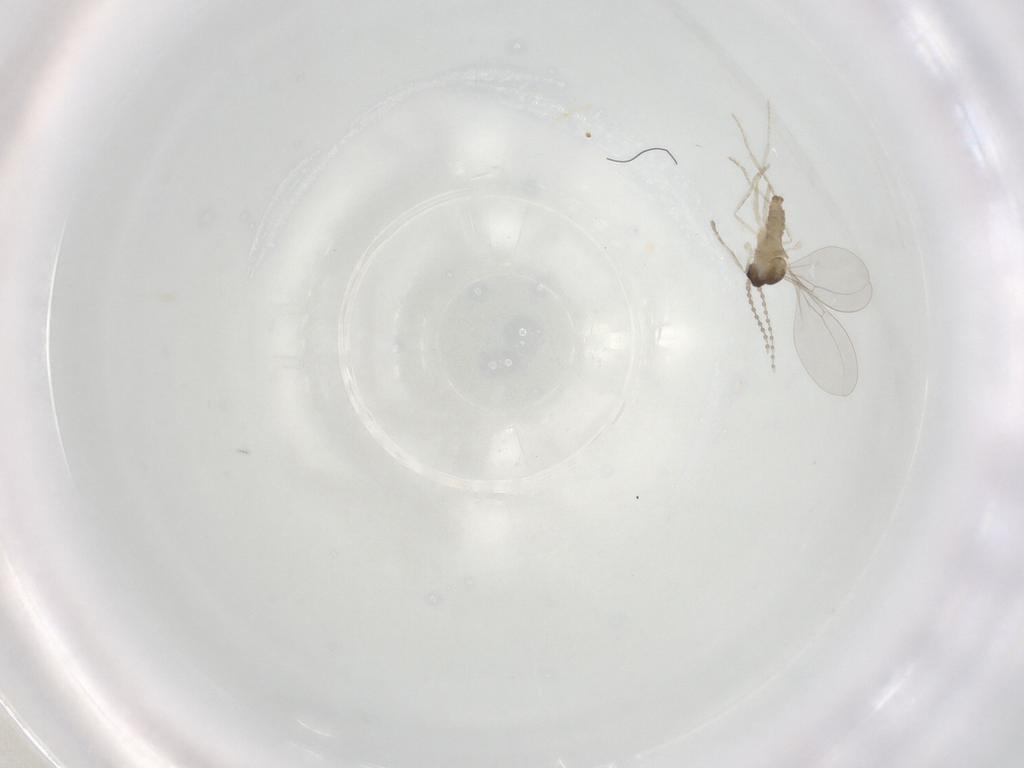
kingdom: Animalia
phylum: Arthropoda
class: Insecta
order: Diptera
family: Cecidomyiidae
